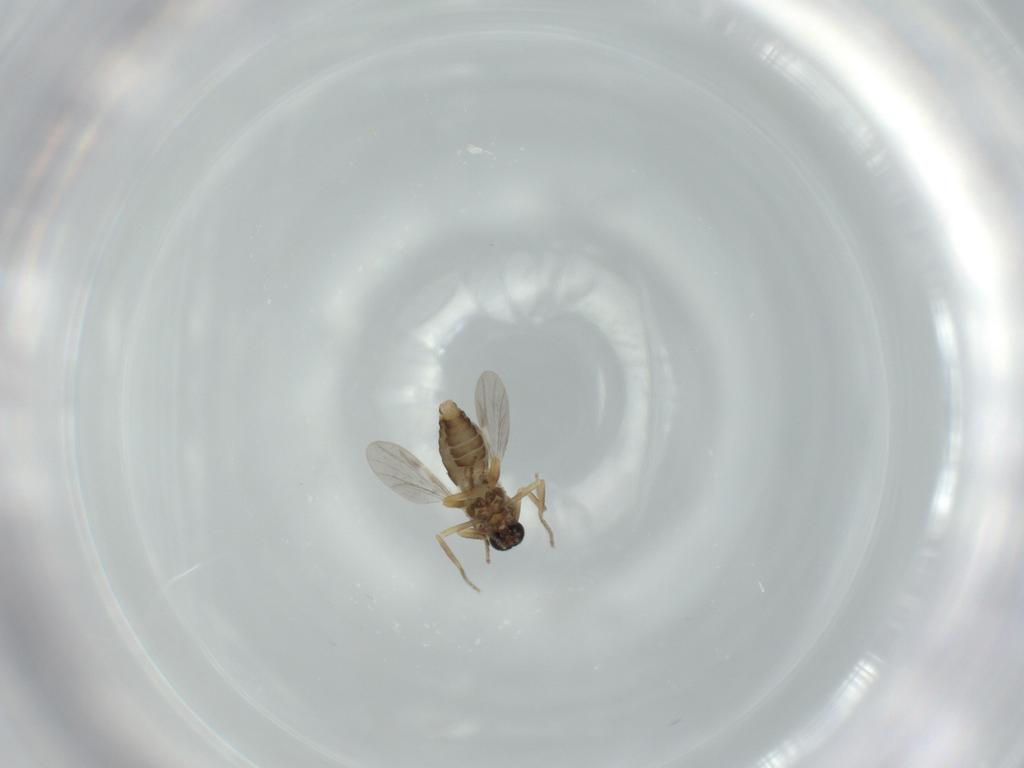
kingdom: Animalia
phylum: Arthropoda
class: Insecta
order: Diptera
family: Ceratopogonidae
